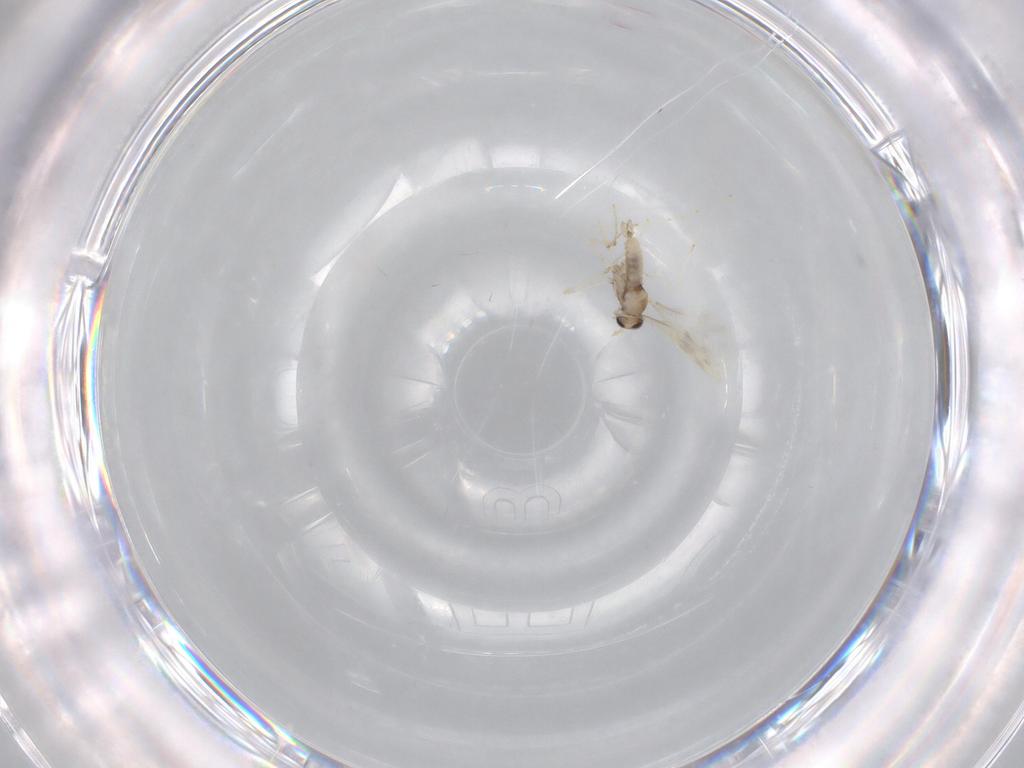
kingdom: Animalia
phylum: Arthropoda
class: Insecta
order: Diptera
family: Cecidomyiidae
